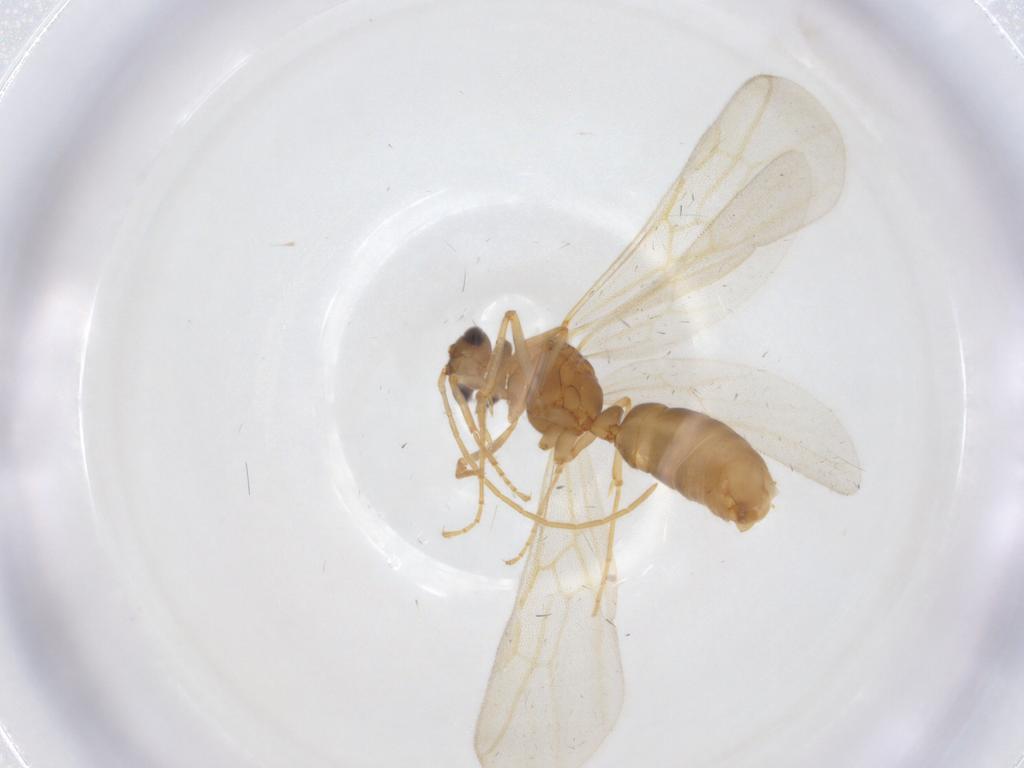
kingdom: Animalia
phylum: Arthropoda
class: Insecta
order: Hymenoptera
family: Formicidae
